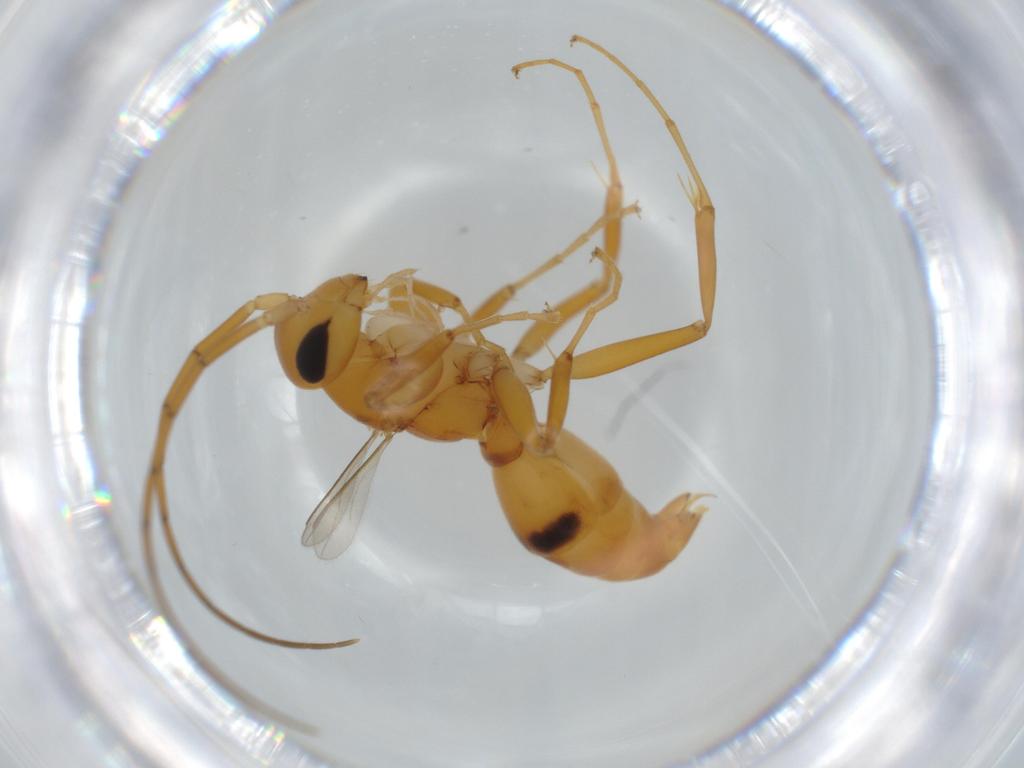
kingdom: Animalia
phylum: Arthropoda
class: Insecta
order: Hymenoptera
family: Rhopalosomatidae
